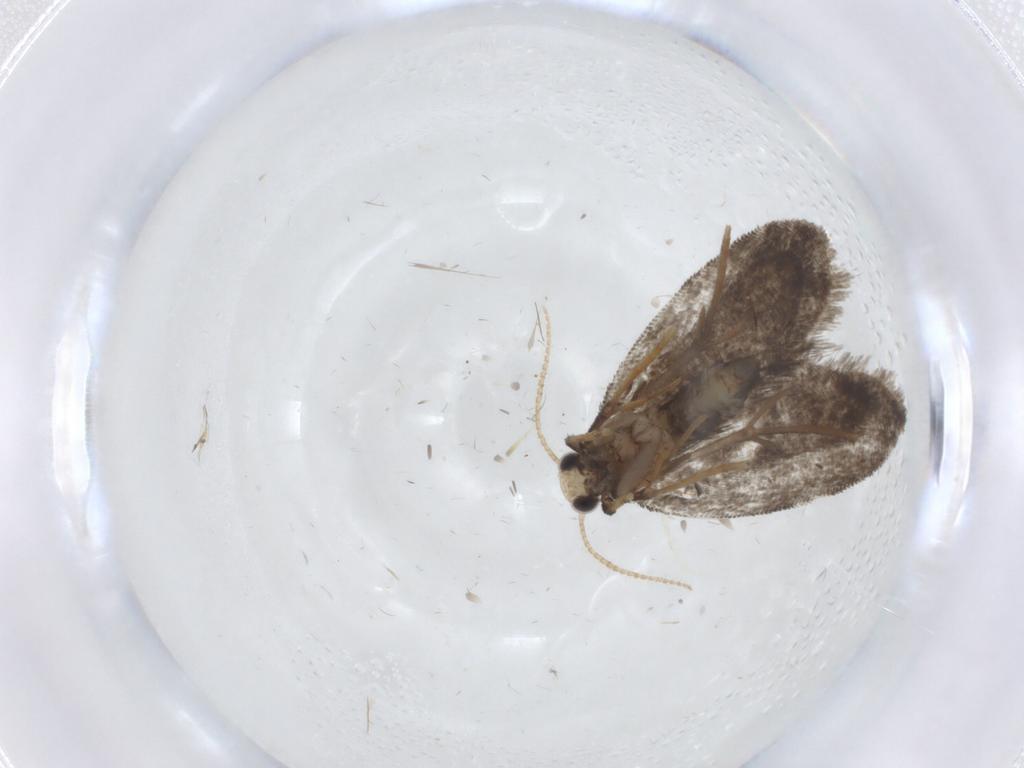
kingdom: Animalia
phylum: Arthropoda
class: Insecta
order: Lepidoptera
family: Psychidae
